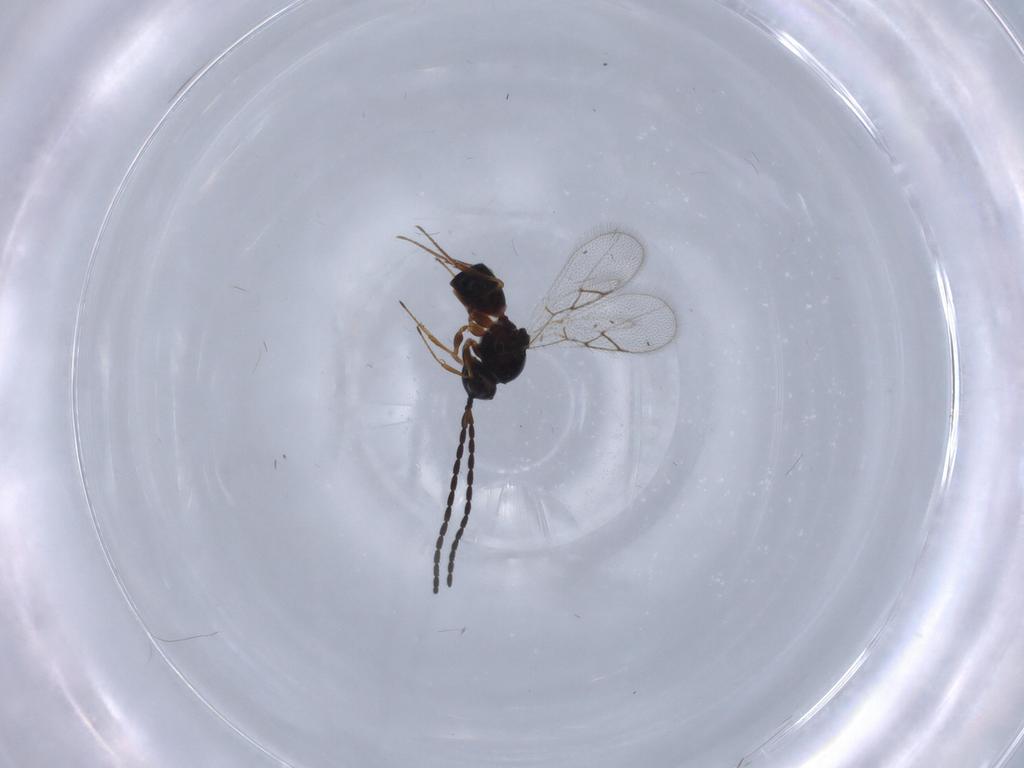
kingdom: Animalia
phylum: Arthropoda
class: Insecta
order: Hymenoptera
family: Figitidae
